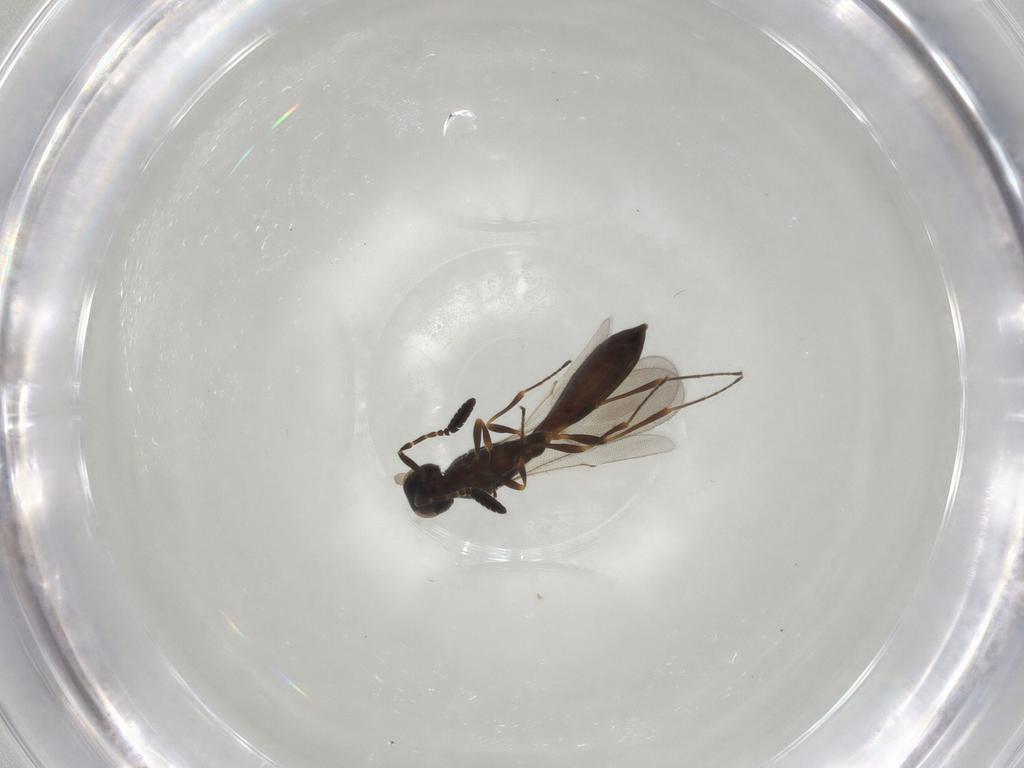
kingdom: Animalia
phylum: Arthropoda
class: Insecta
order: Hymenoptera
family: Scelionidae
